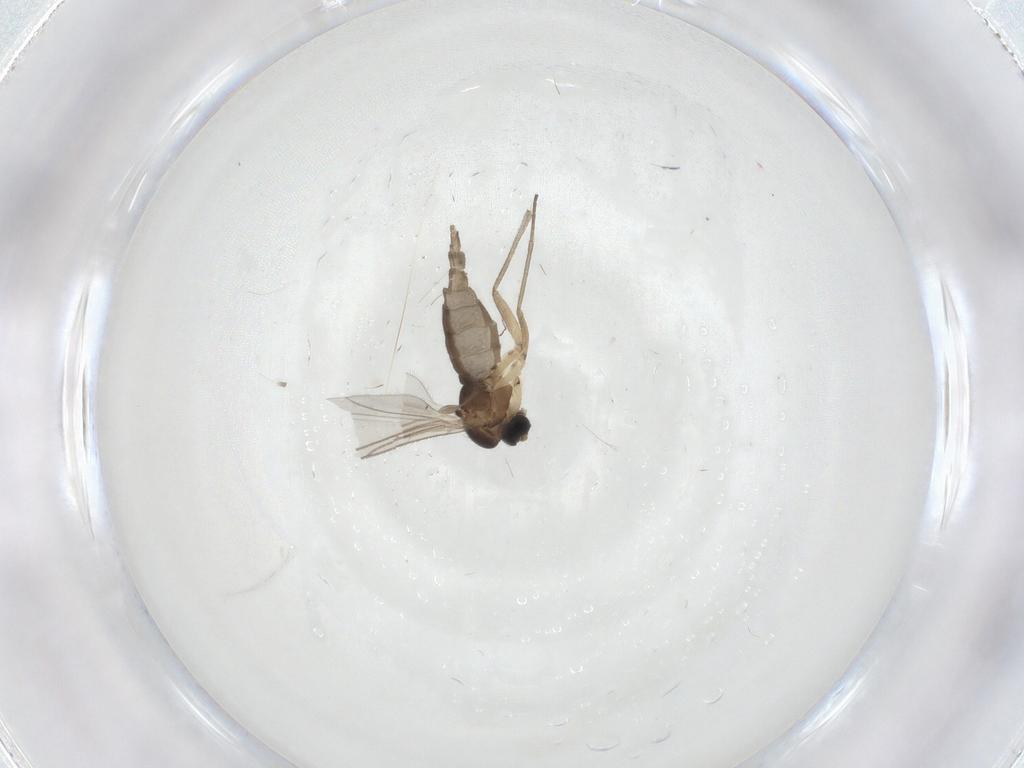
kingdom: Animalia
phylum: Arthropoda
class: Insecta
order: Diptera
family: Sciaridae
